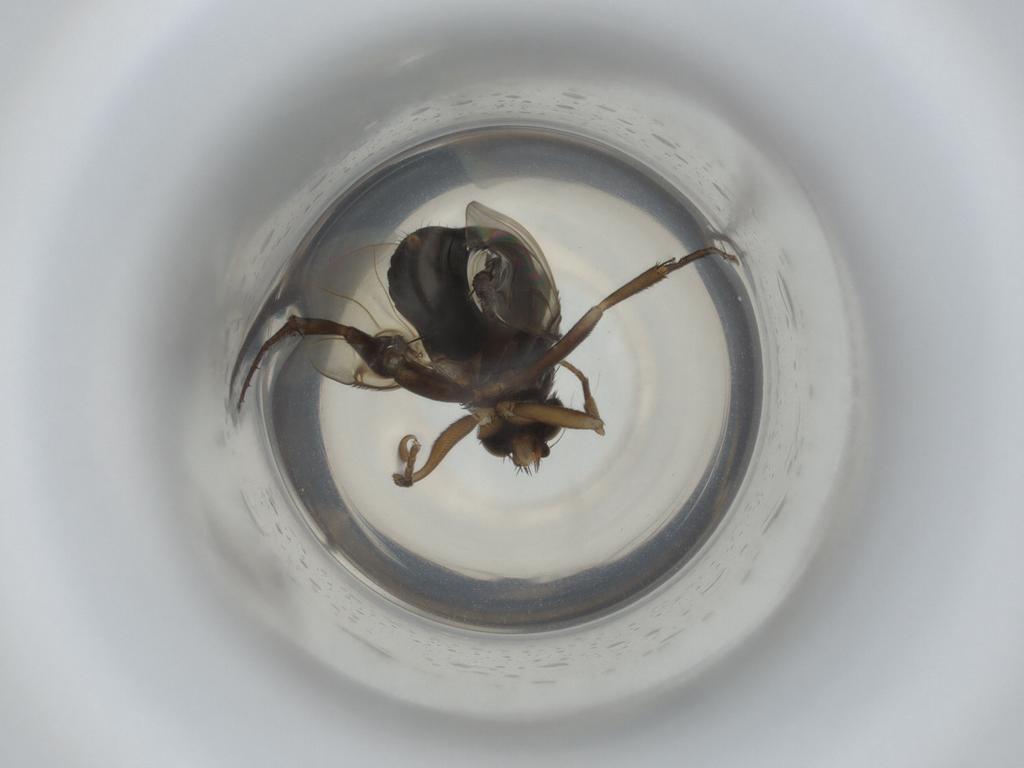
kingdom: Animalia
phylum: Arthropoda
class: Insecta
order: Diptera
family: Phoridae
